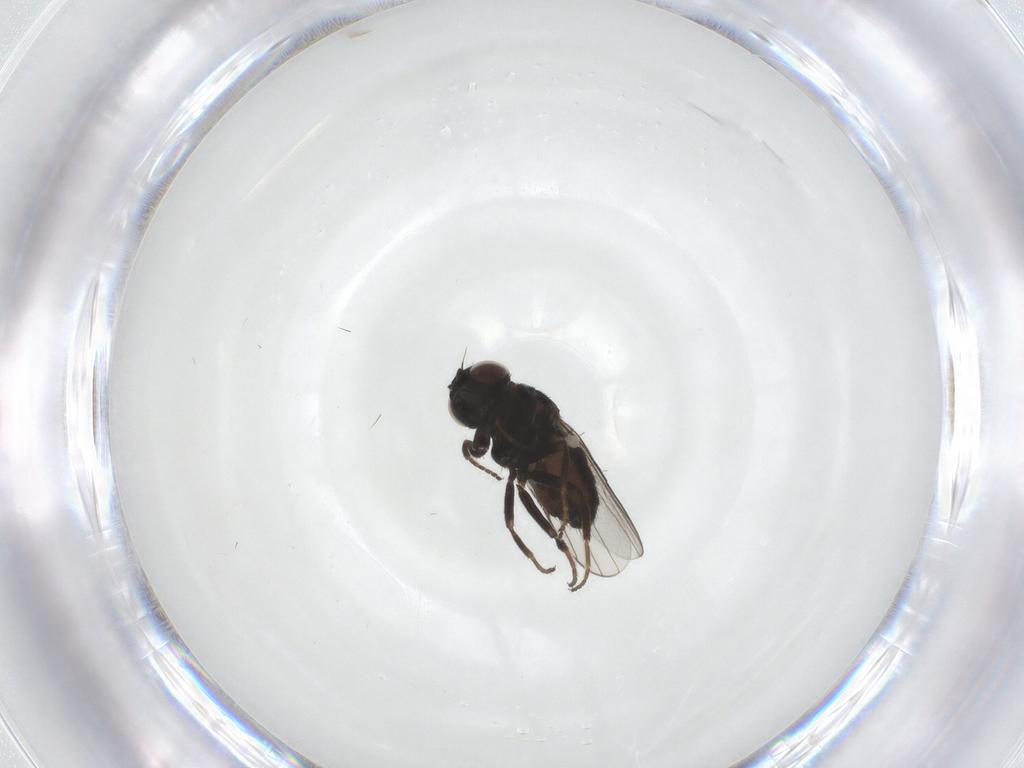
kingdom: Animalia
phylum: Arthropoda
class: Insecta
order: Diptera
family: Chloropidae
